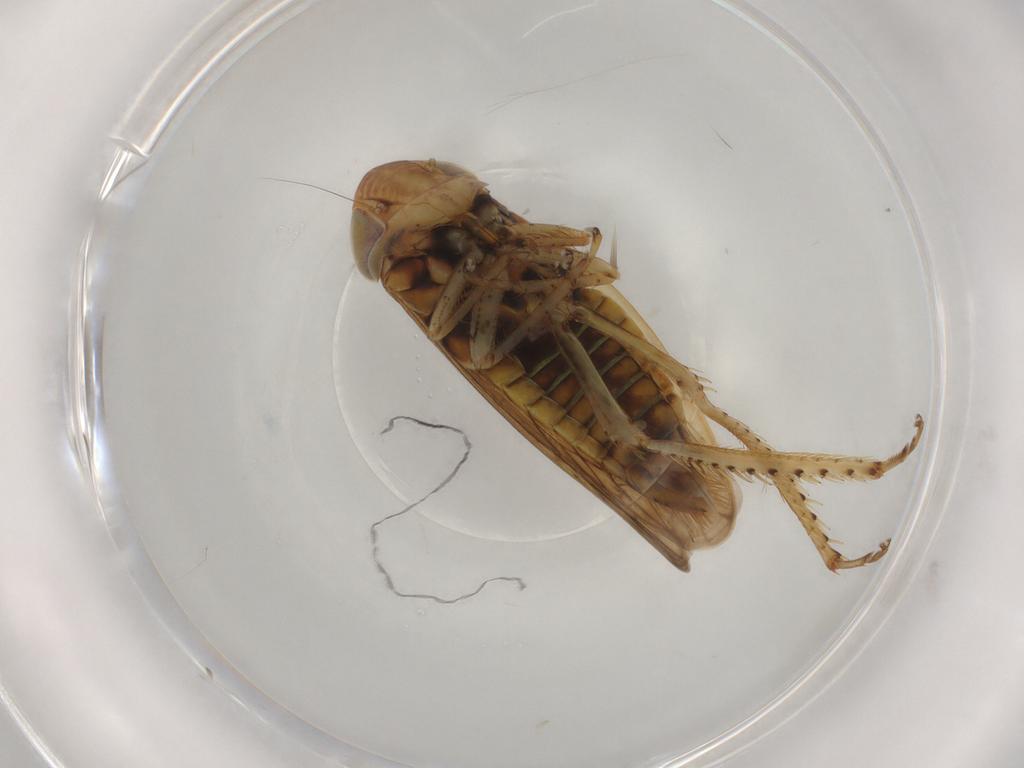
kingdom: Animalia
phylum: Arthropoda
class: Insecta
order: Hemiptera
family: Cicadellidae
